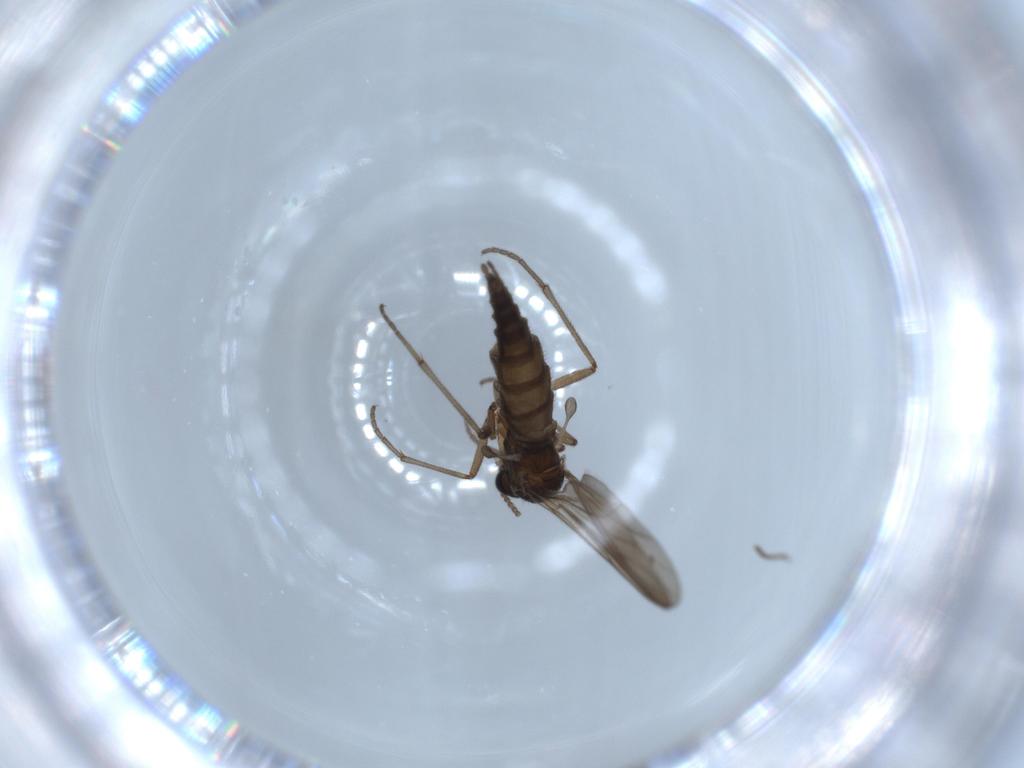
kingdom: Animalia
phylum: Arthropoda
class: Insecta
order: Diptera
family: Sciaridae
